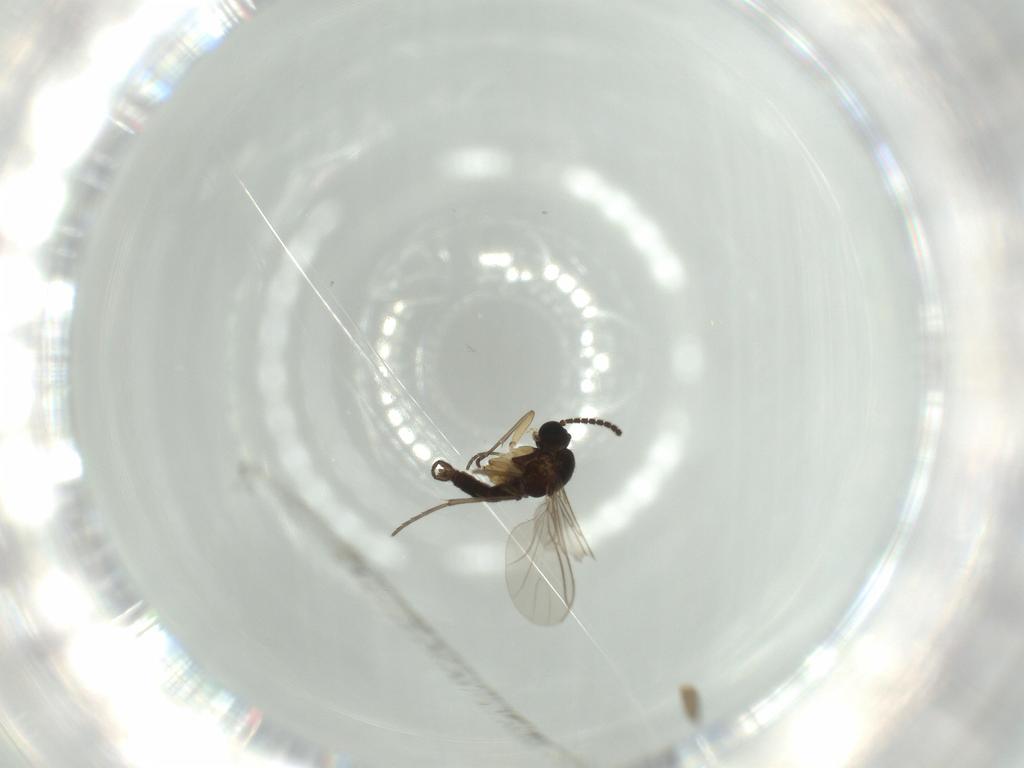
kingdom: Animalia
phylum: Arthropoda
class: Insecta
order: Diptera
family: Sciaridae
